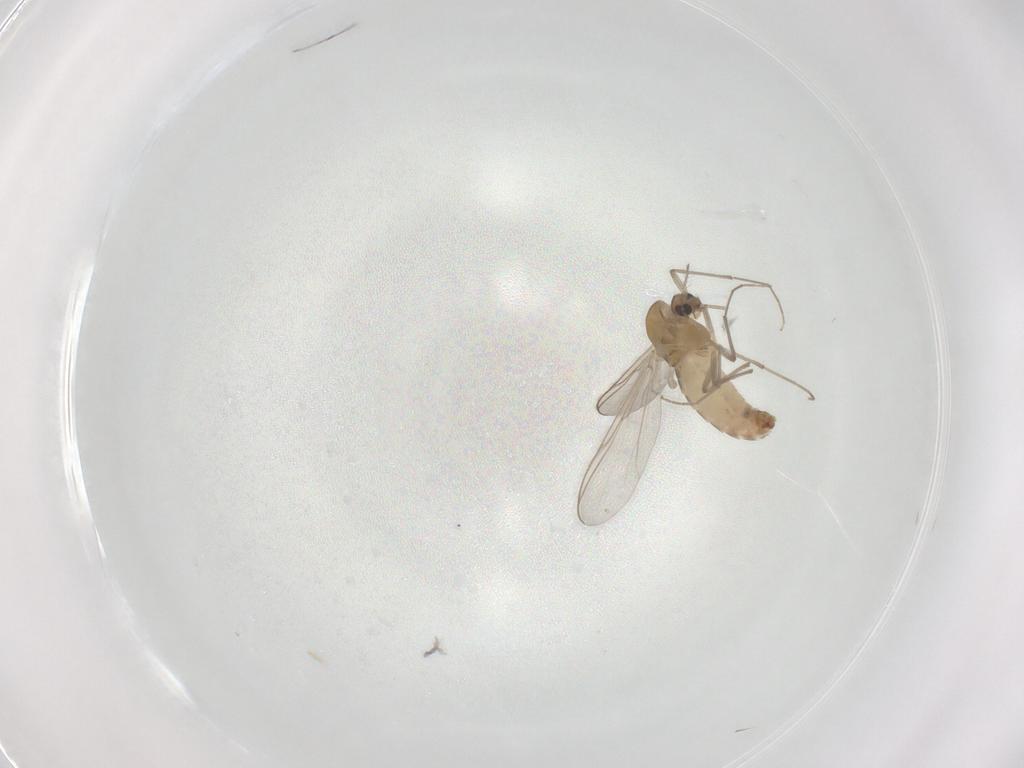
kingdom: Animalia
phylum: Arthropoda
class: Insecta
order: Diptera
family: Chironomidae
